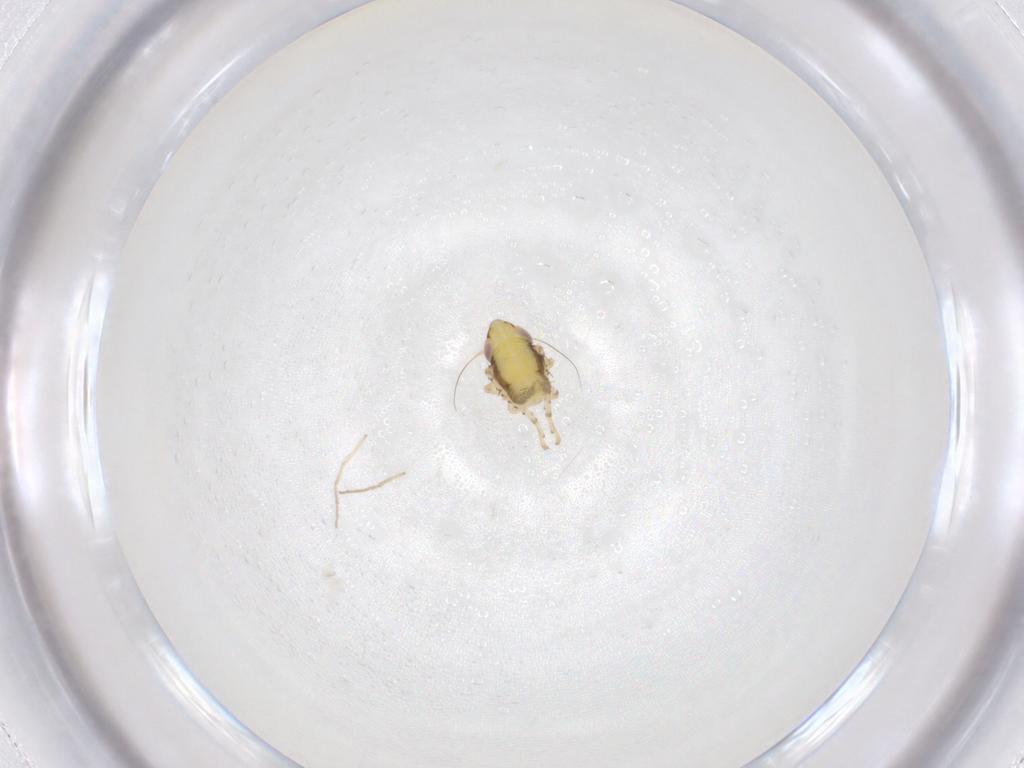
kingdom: Animalia
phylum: Arthropoda
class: Insecta
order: Hemiptera
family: Cicadellidae
